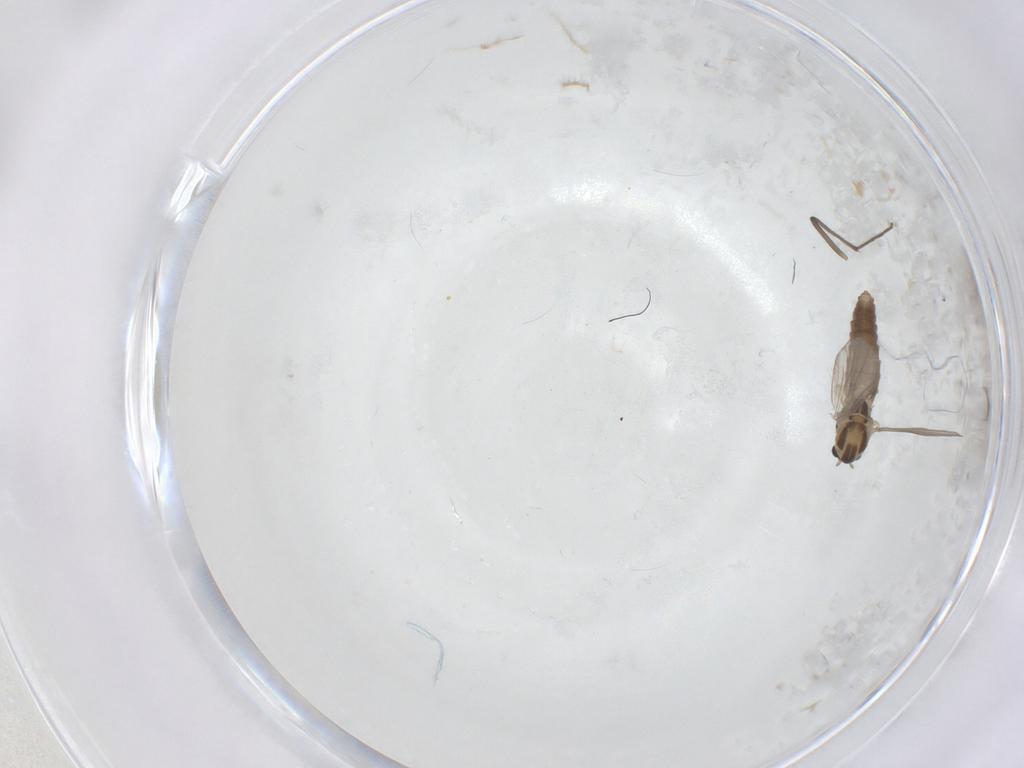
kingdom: Animalia
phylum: Arthropoda
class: Insecta
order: Diptera
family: Chironomidae
